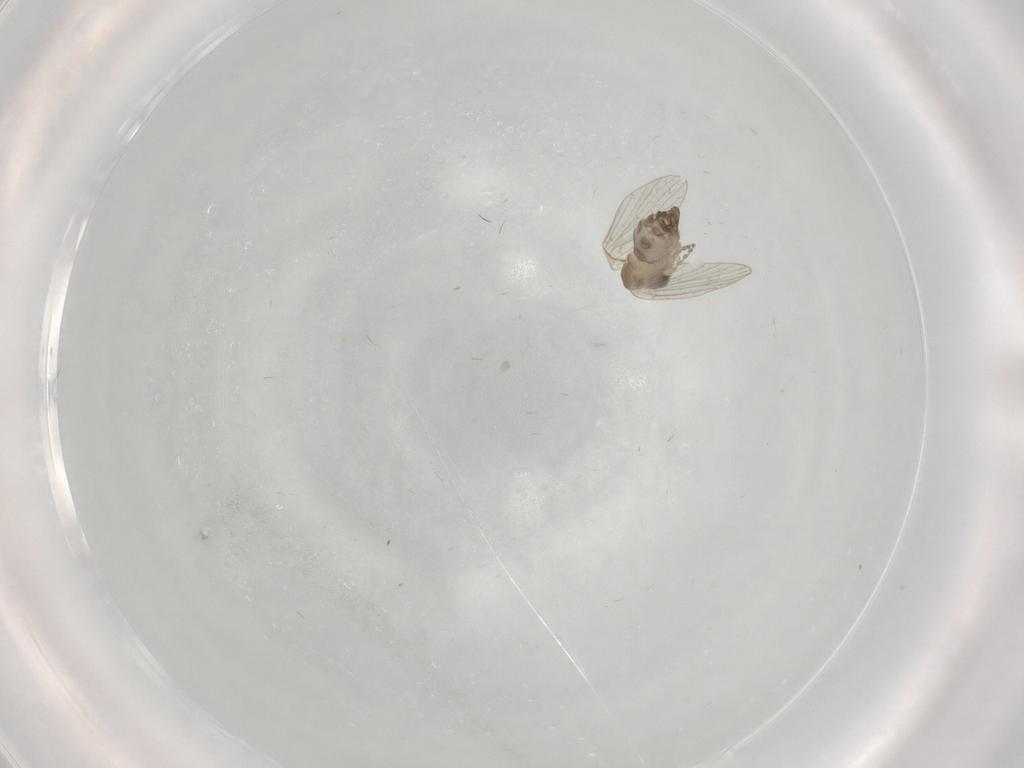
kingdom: Animalia
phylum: Arthropoda
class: Insecta
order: Diptera
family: Psychodidae
